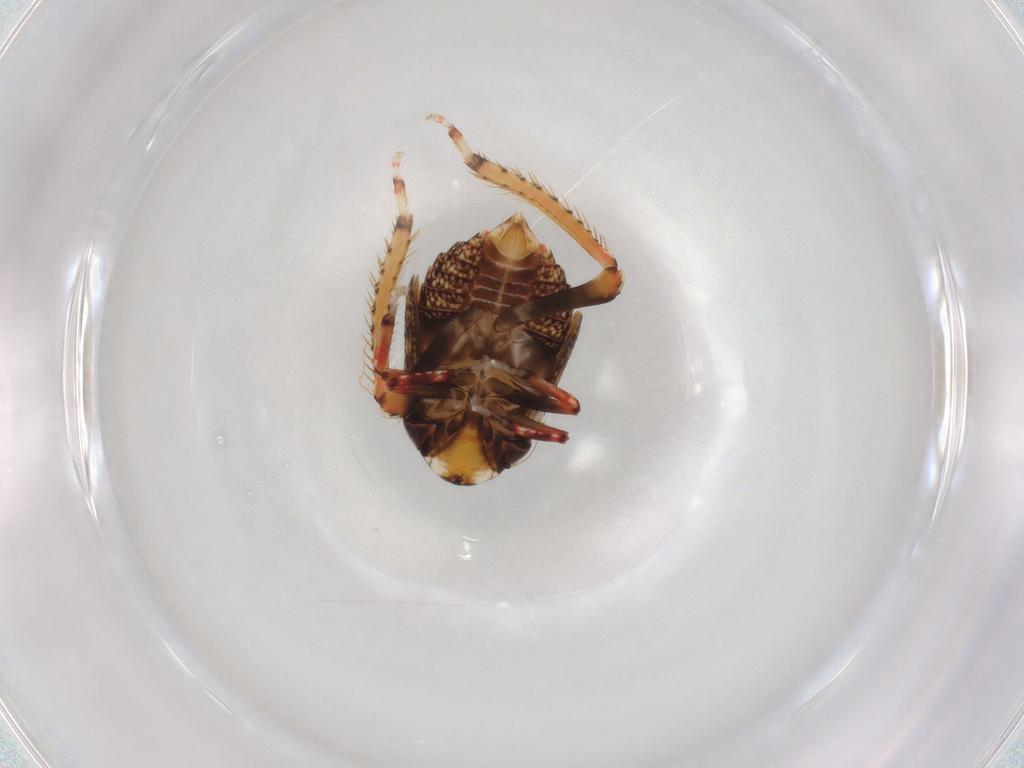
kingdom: Animalia
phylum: Arthropoda
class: Insecta
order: Hemiptera
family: Cicadellidae
